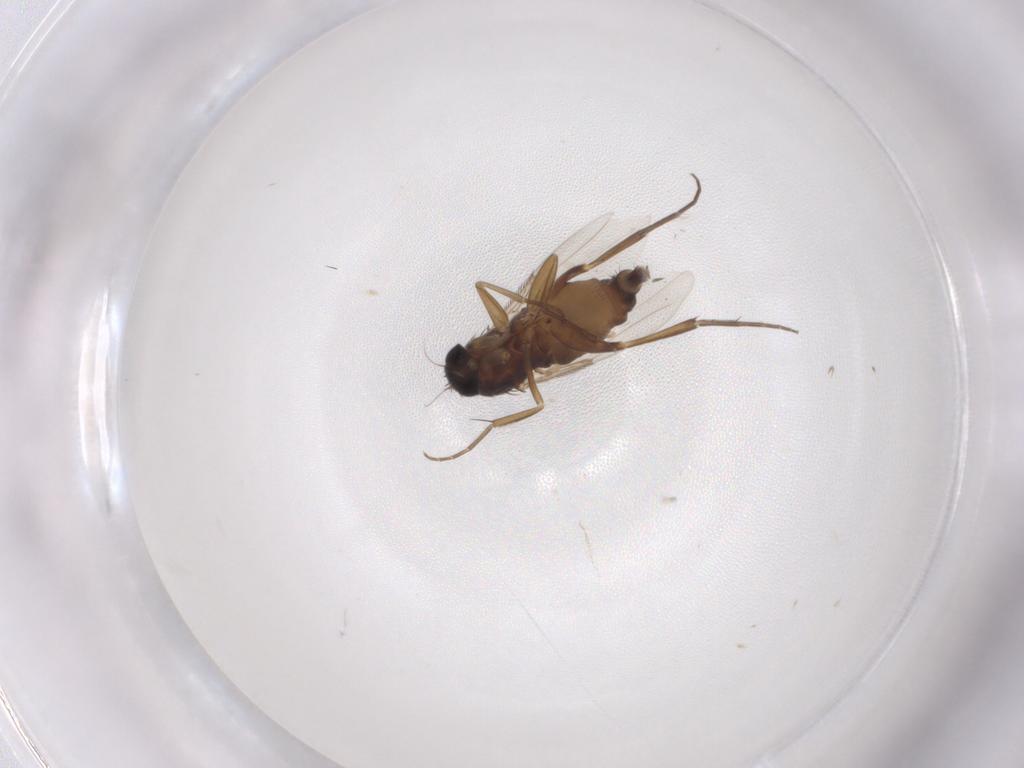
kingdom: Animalia
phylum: Arthropoda
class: Insecta
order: Diptera
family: Phoridae
